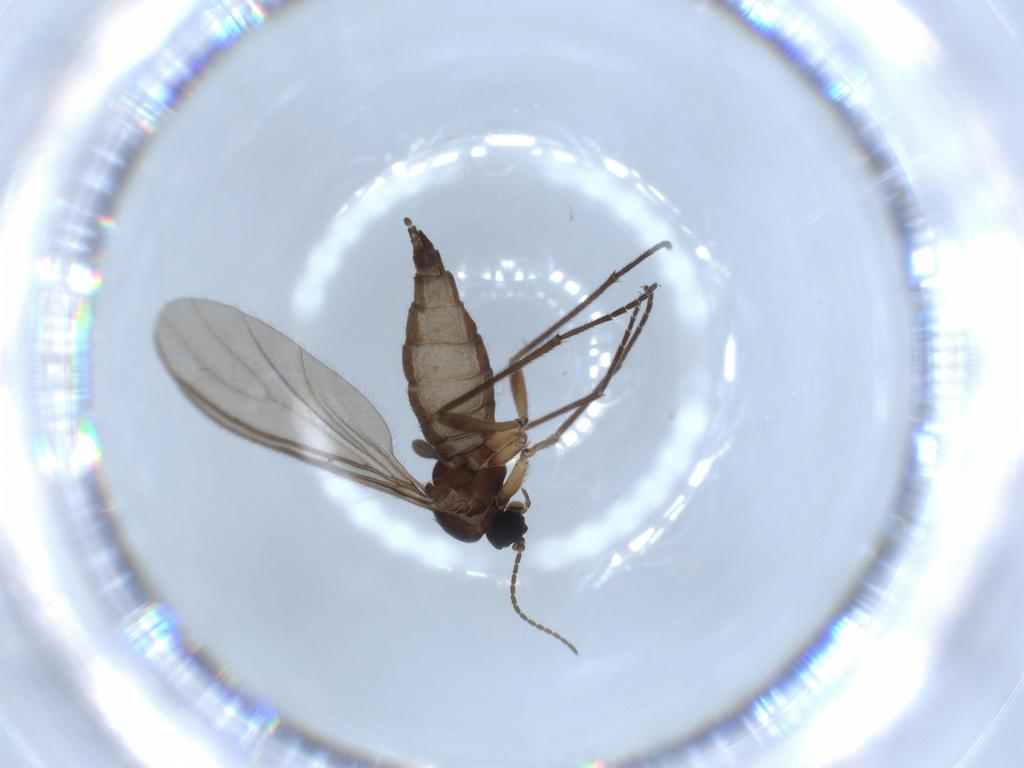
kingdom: Animalia
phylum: Arthropoda
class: Insecta
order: Diptera
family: Sciaridae
